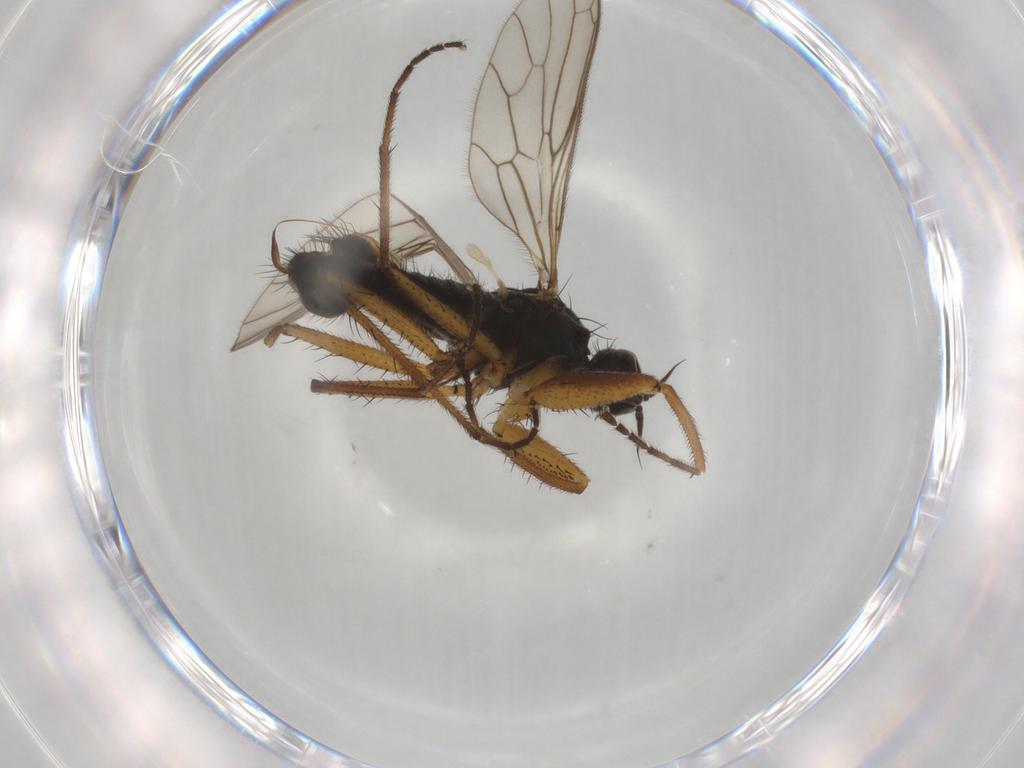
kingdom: Animalia
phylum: Arthropoda
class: Insecta
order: Diptera
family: Empididae
